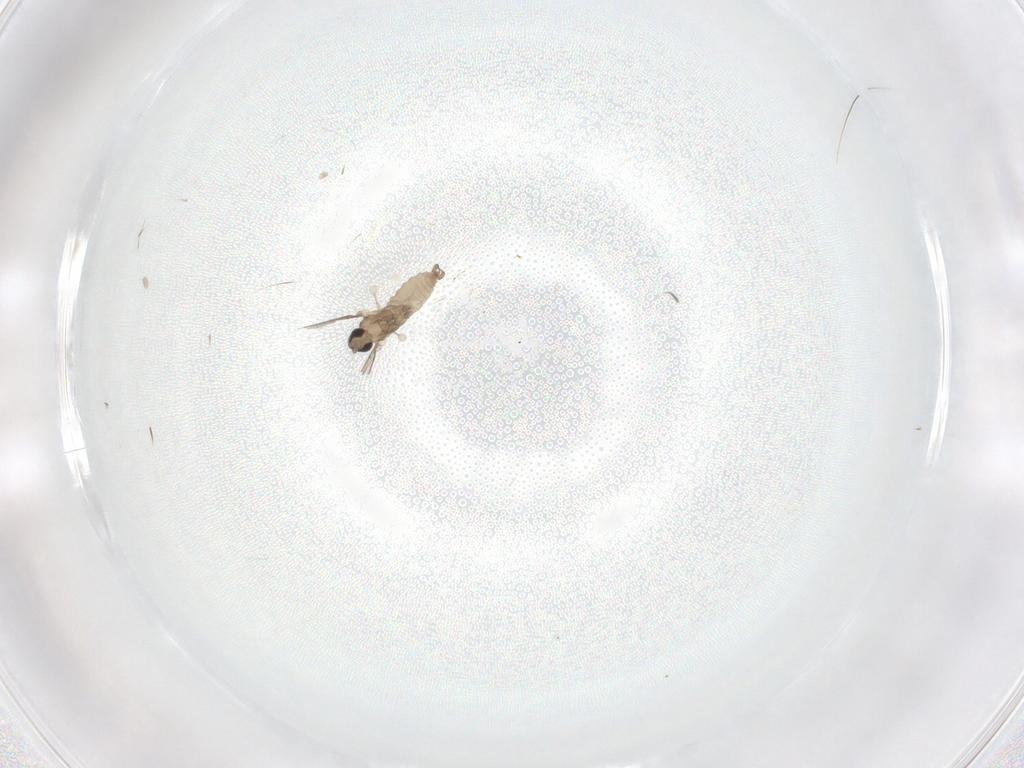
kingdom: Animalia
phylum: Arthropoda
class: Insecta
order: Diptera
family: Cecidomyiidae
